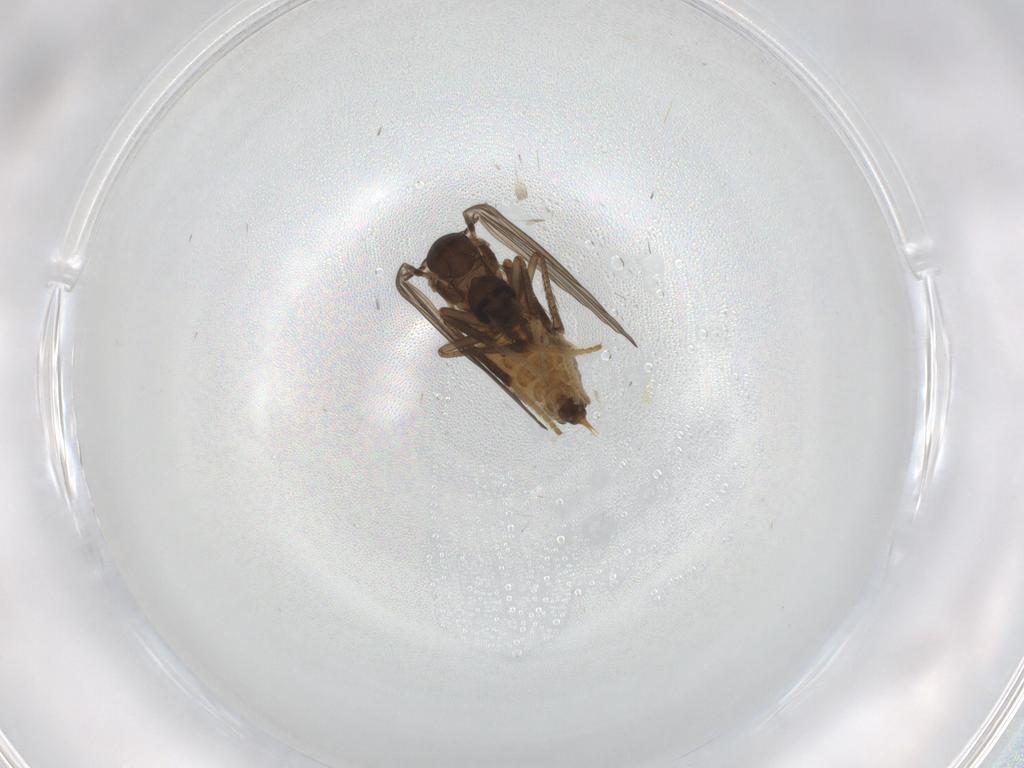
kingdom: Animalia
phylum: Arthropoda
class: Insecta
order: Diptera
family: Psychodidae
